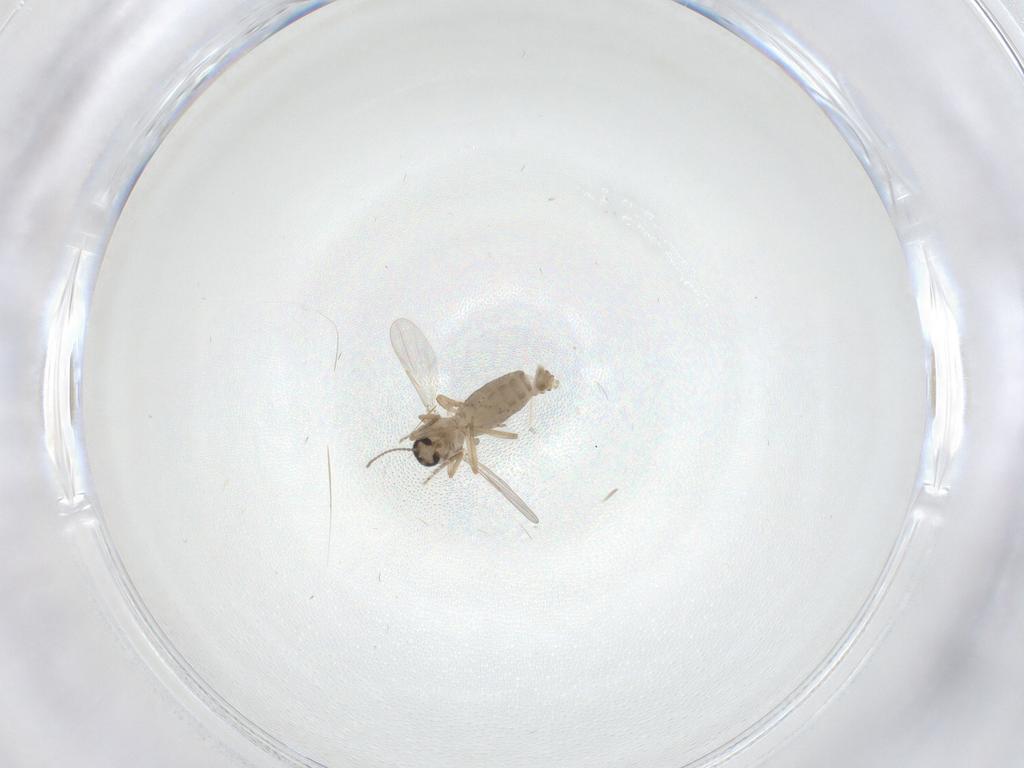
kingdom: Animalia
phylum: Arthropoda
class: Insecta
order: Diptera
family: Ceratopogonidae
